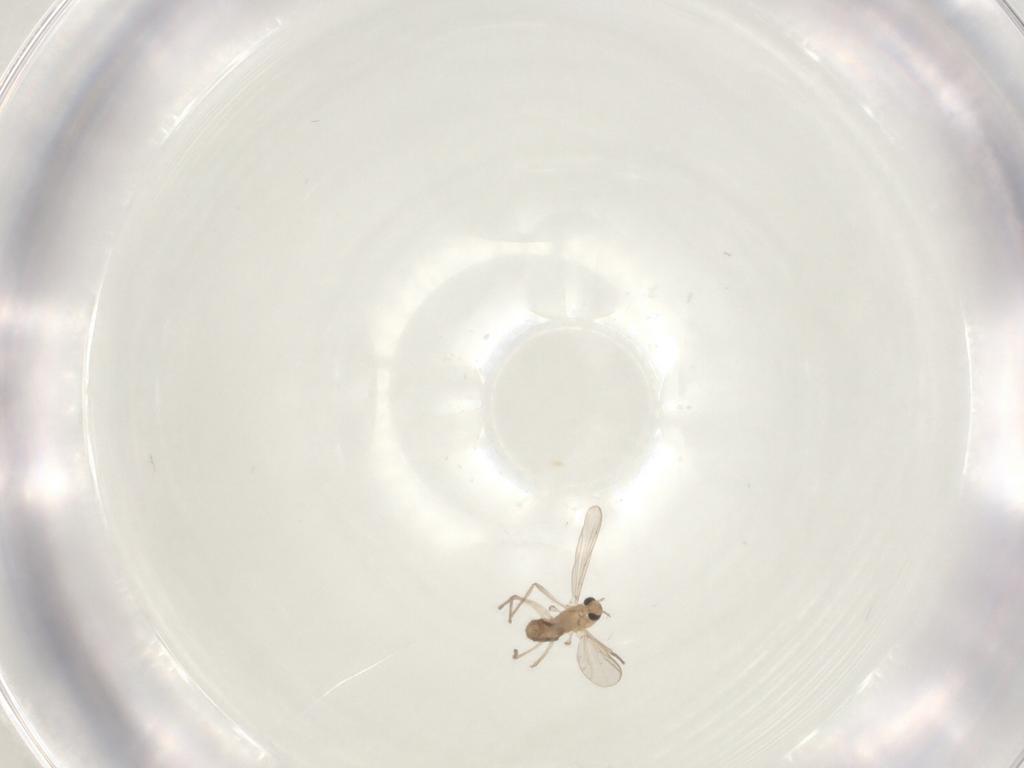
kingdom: Animalia
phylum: Arthropoda
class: Insecta
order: Diptera
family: Chironomidae
